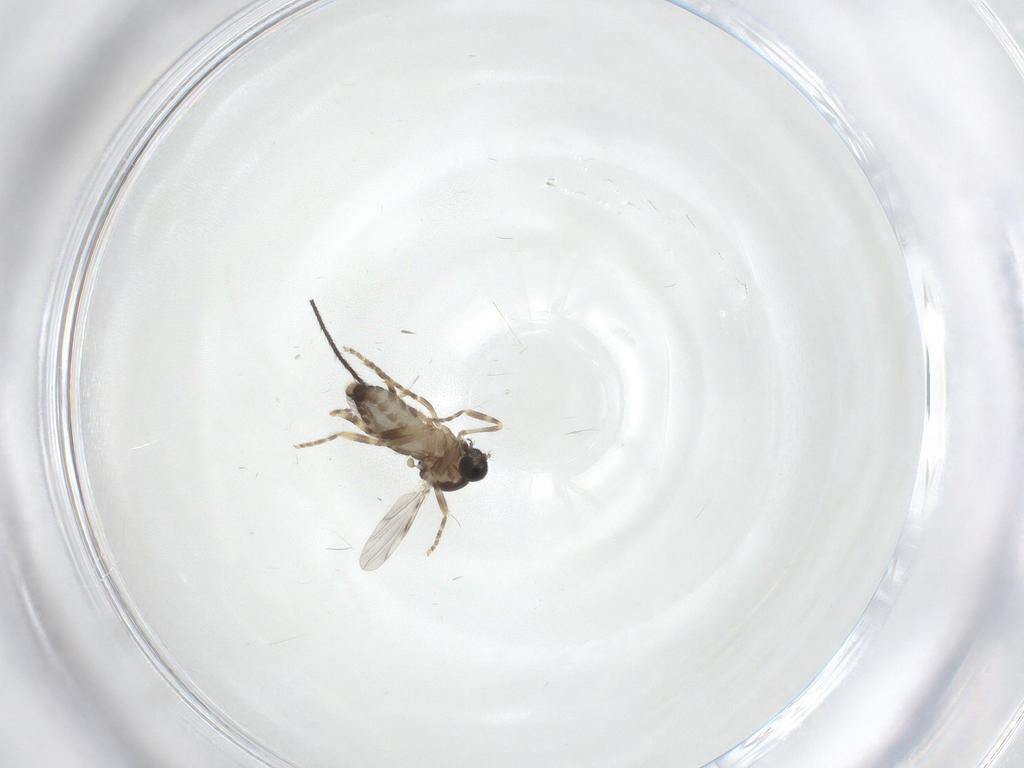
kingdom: Animalia
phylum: Arthropoda
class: Insecta
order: Diptera
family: Ceratopogonidae
